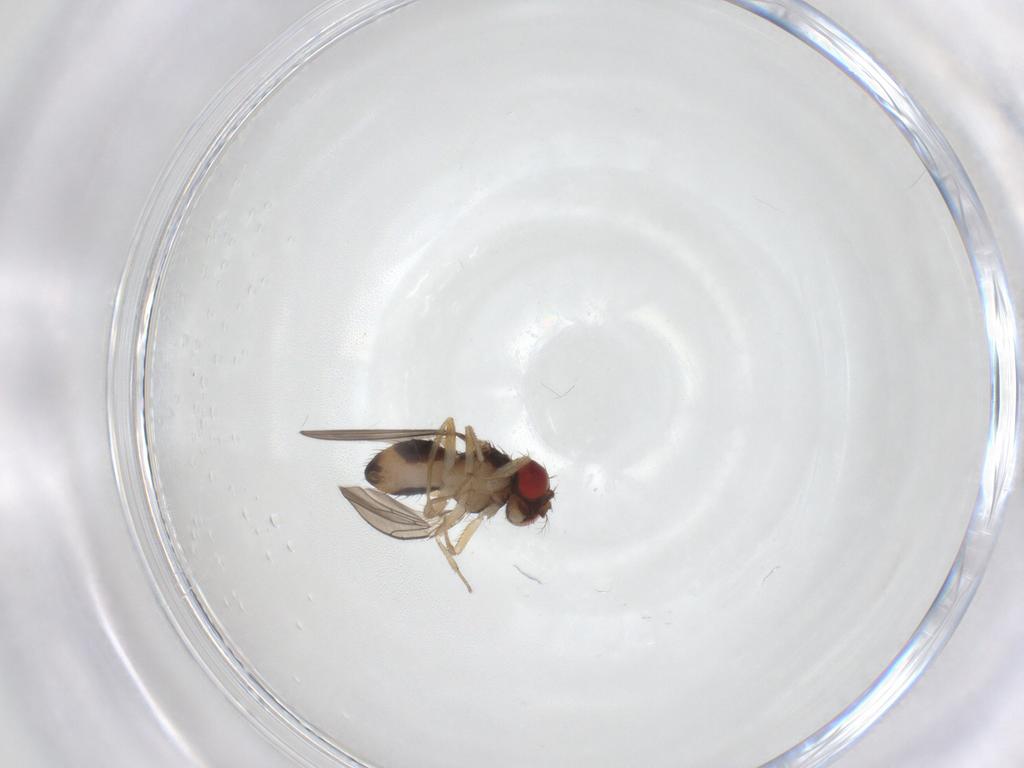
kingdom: Animalia
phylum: Arthropoda
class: Insecta
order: Diptera
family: Drosophilidae
